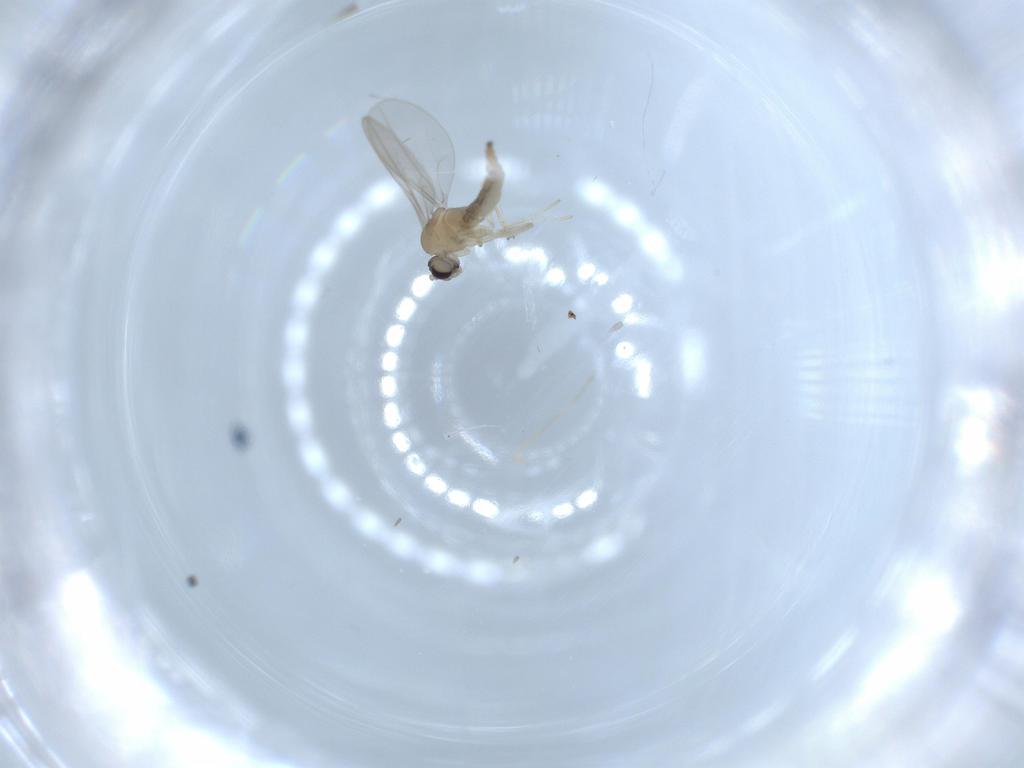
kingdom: Animalia
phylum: Arthropoda
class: Insecta
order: Diptera
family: Cecidomyiidae
